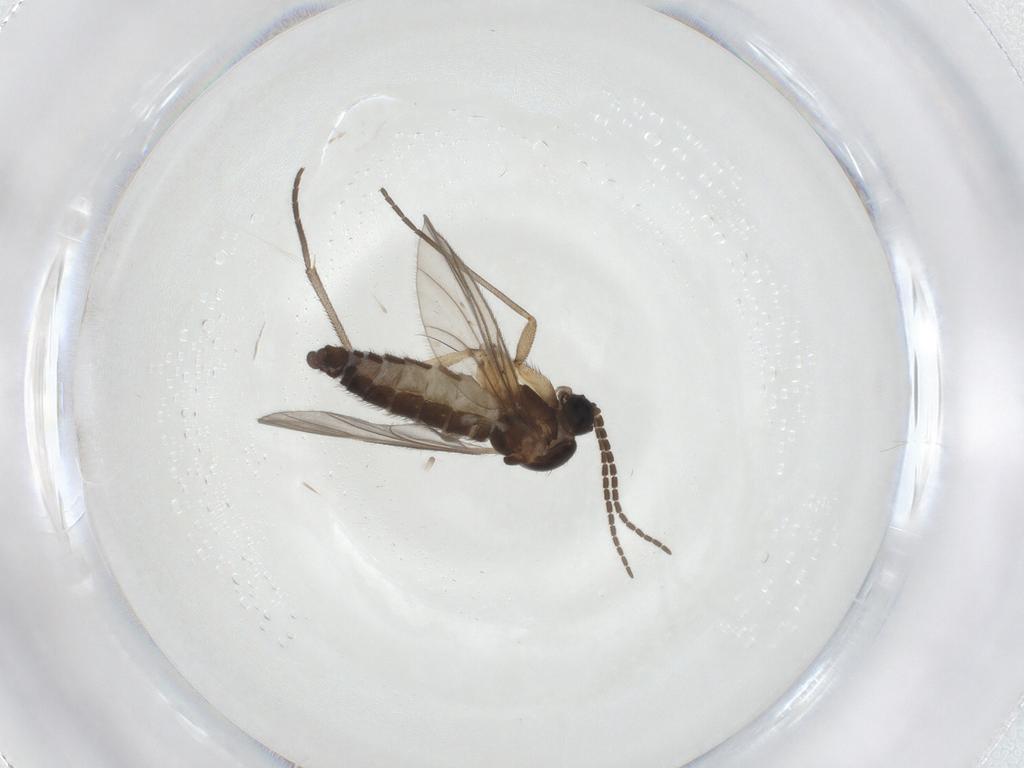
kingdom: Animalia
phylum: Arthropoda
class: Insecta
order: Diptera
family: Sciaridae
